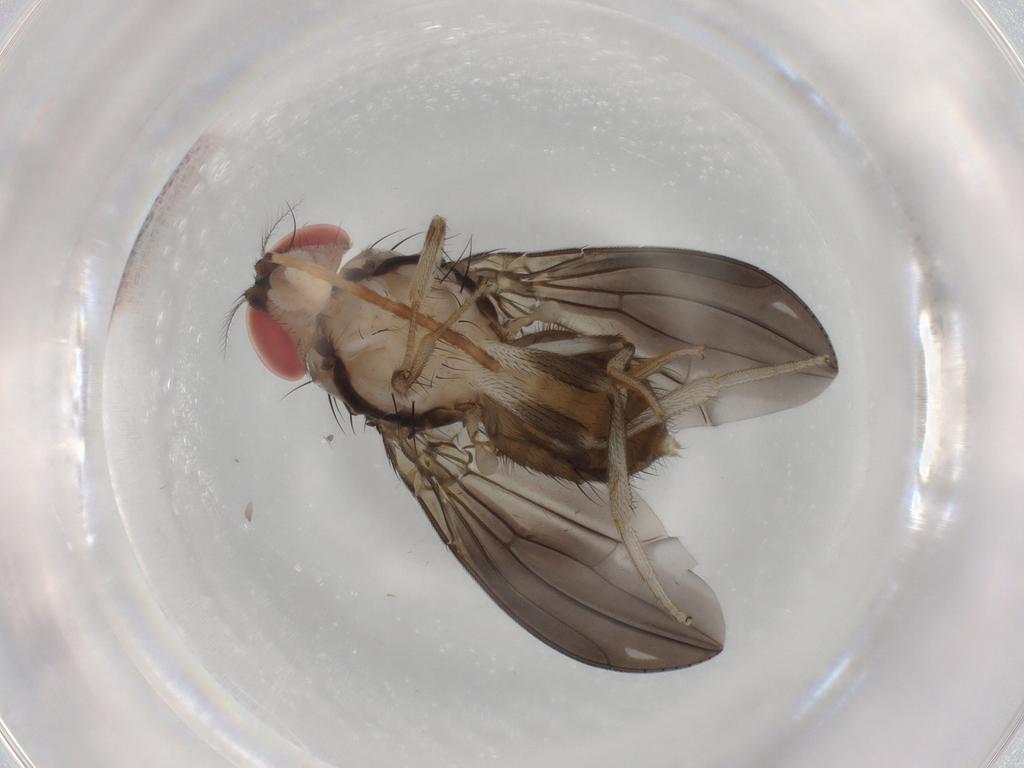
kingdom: Animalia
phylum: Arthropoda
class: Insecta
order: Diptera
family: Drosophilidae
